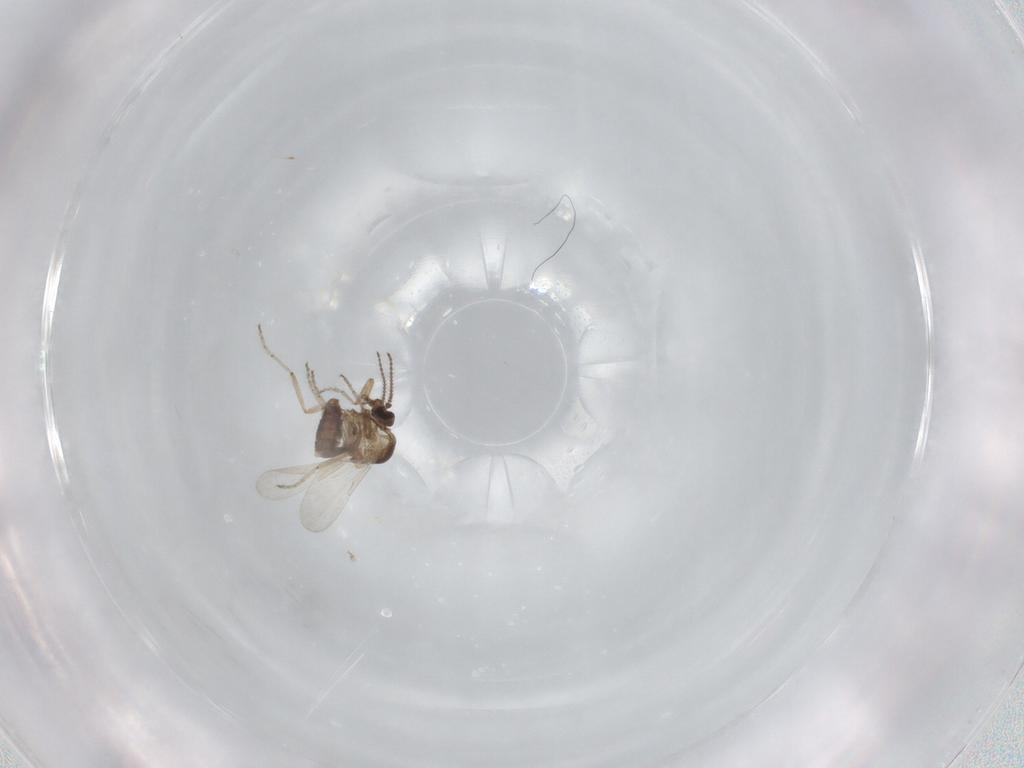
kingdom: Animalia
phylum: Arthropoda
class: Insecta
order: Diptera
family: Ceratopogonidae
